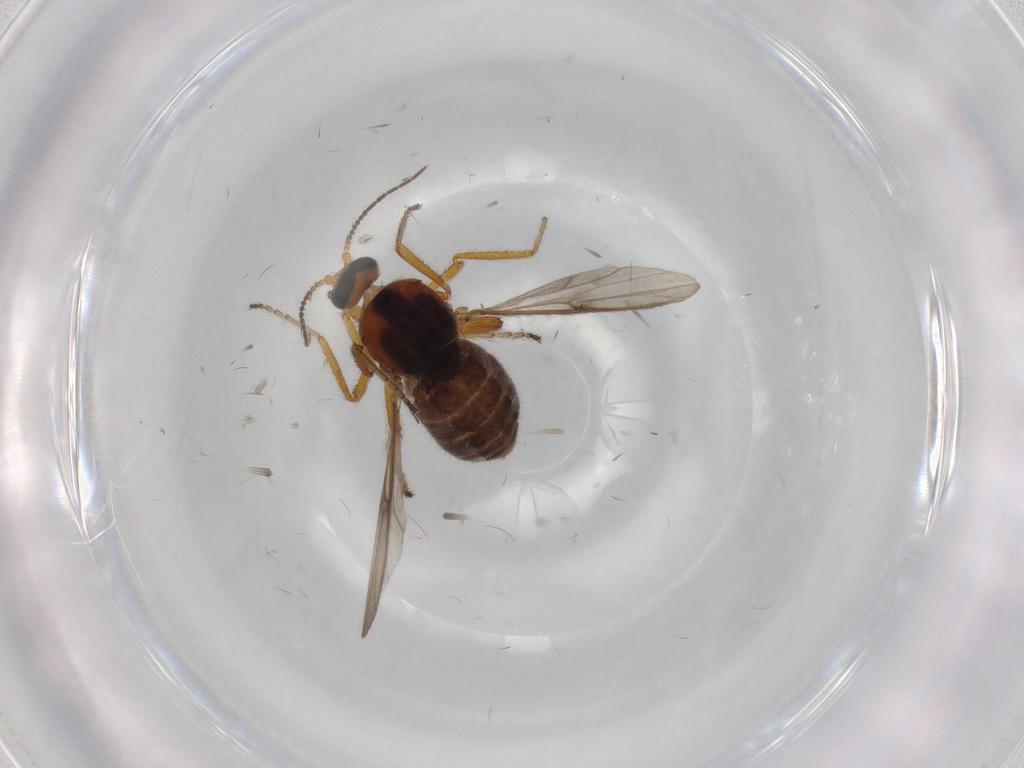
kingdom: Animalia
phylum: Arthropoda
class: Insecta
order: Diptera
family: Ceratopogonidae
